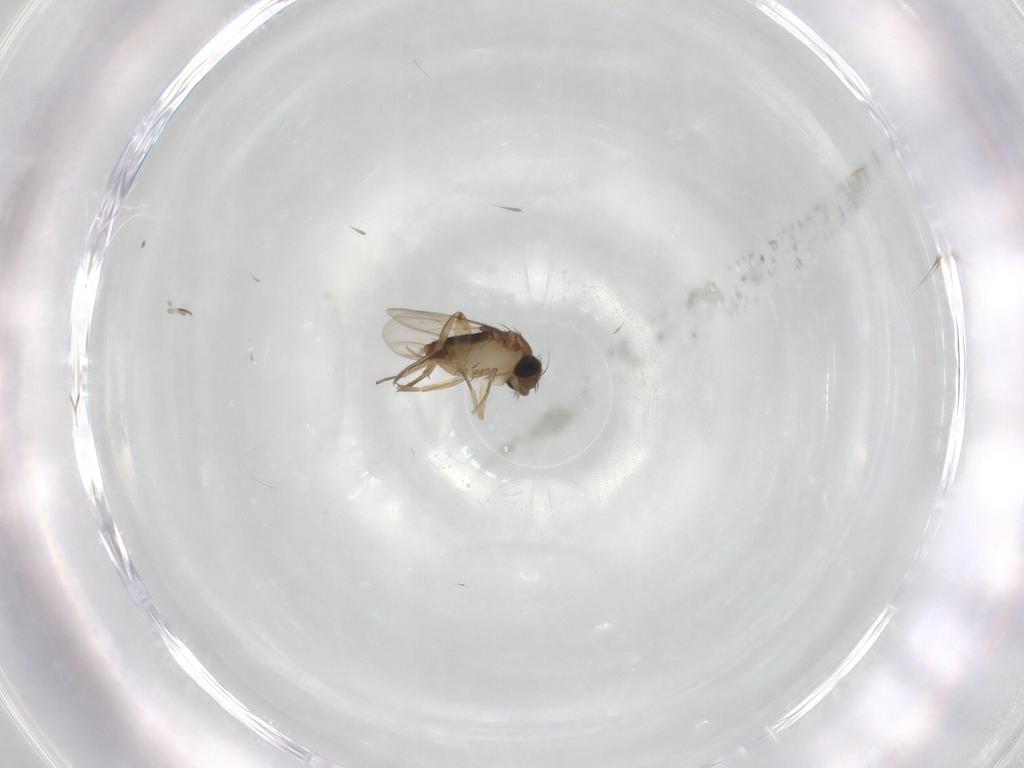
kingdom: Animalia
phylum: Arthropoda
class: Insecta
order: Diptera
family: Phoridae
